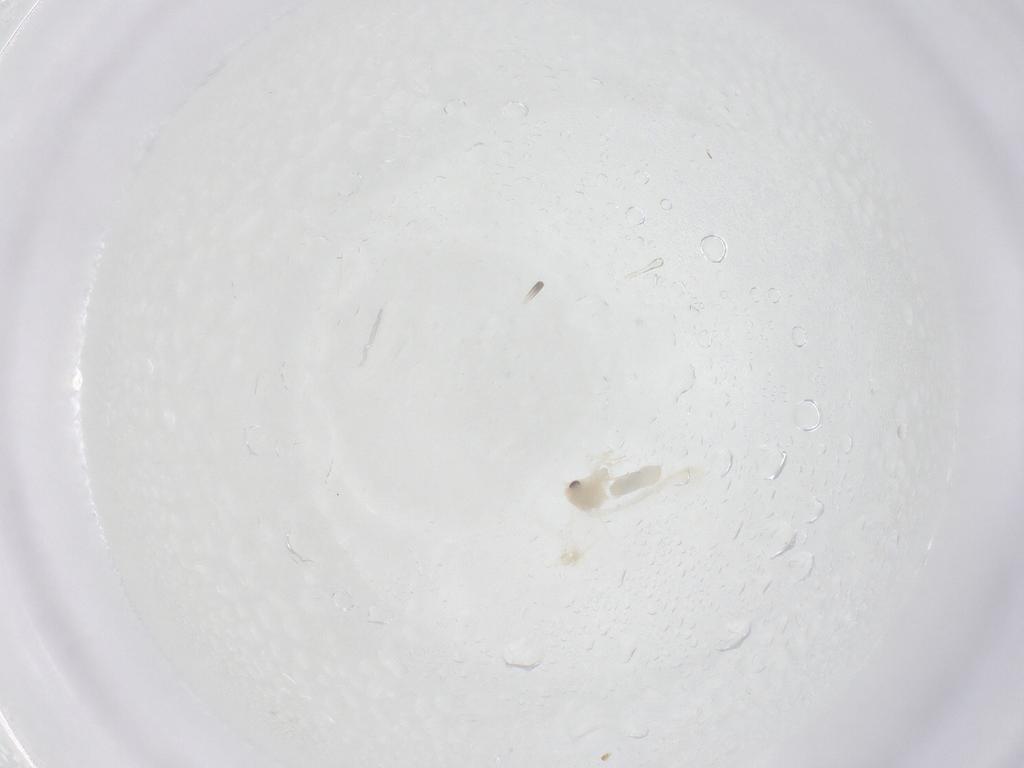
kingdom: Animalia
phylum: Arthropoda
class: Insecta
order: Hemiptera
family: Aleyrodidae
